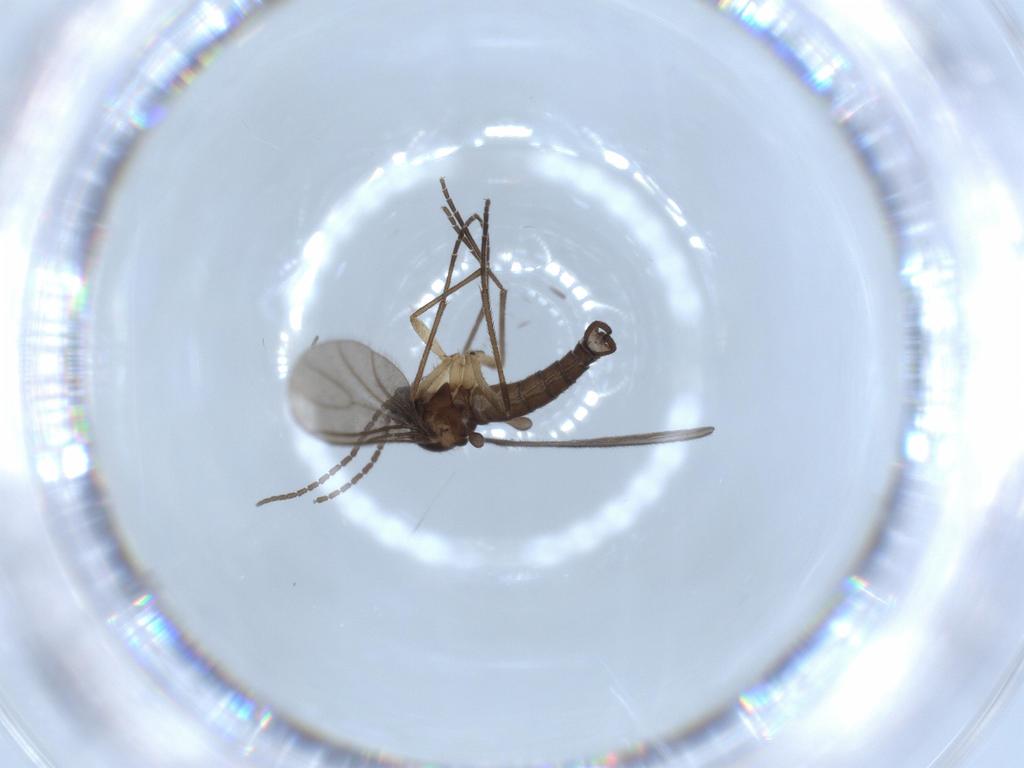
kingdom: Animalia
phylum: Arthropoda
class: Insecta
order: Diptera
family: Sciaridae
